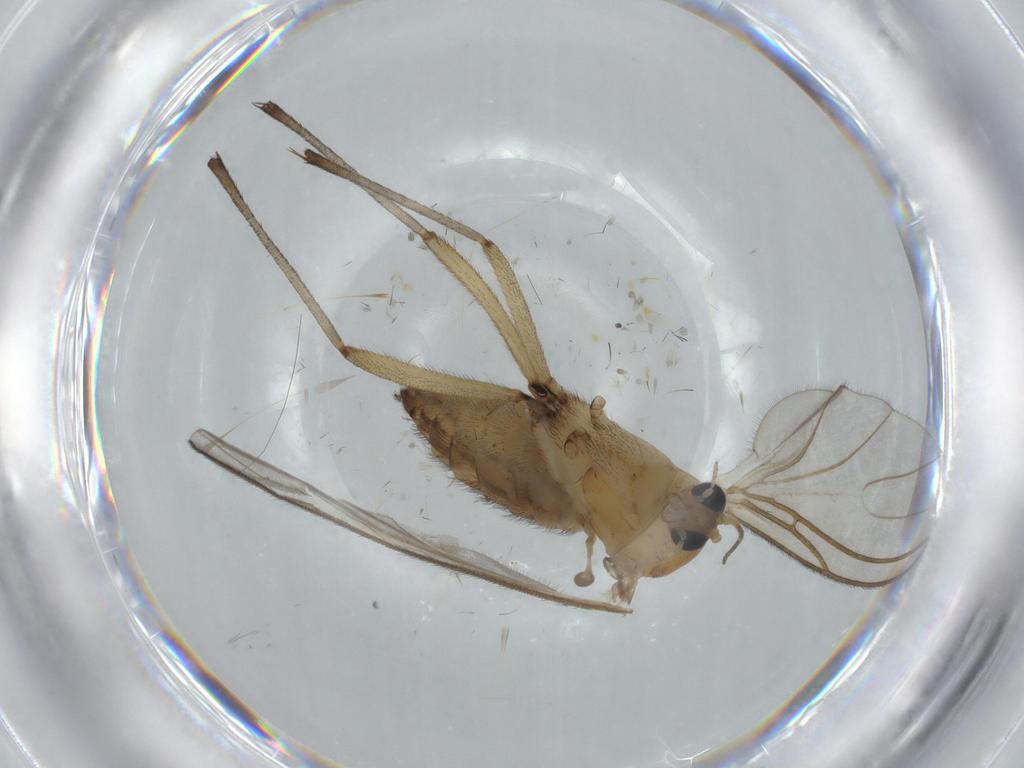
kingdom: Animalia
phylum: Arthropoda
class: Insecta
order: Diptera
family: Sciaridae
